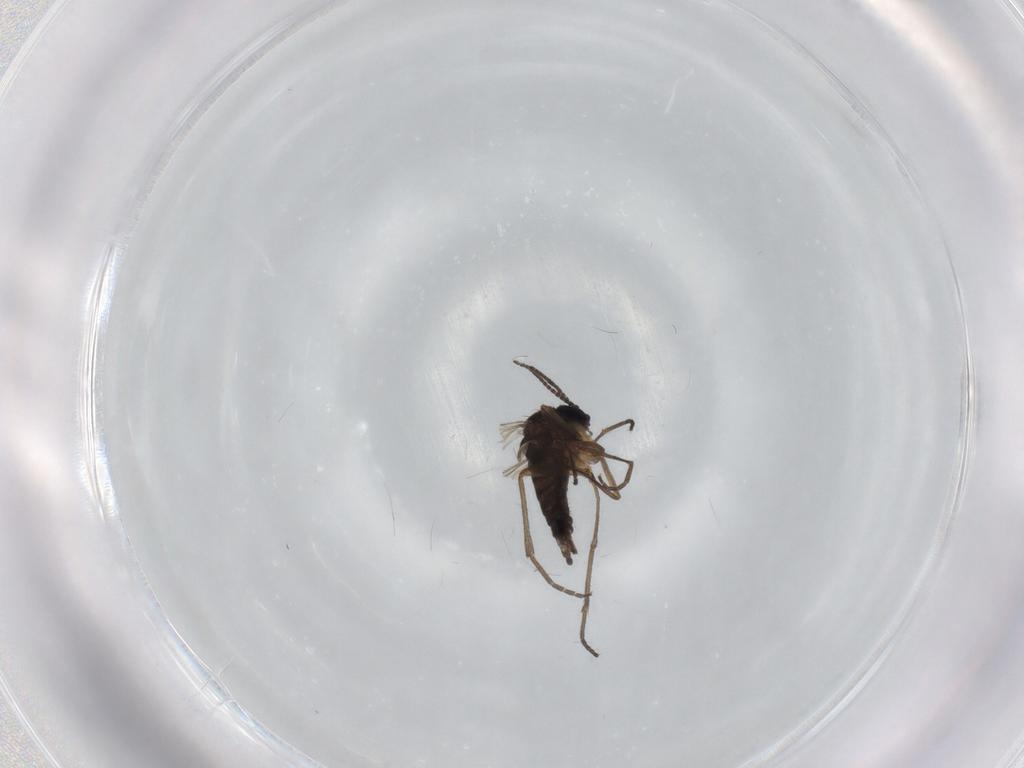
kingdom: Animalia
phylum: Arthropoda
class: Insecta
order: Diptera
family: Sciaridae
